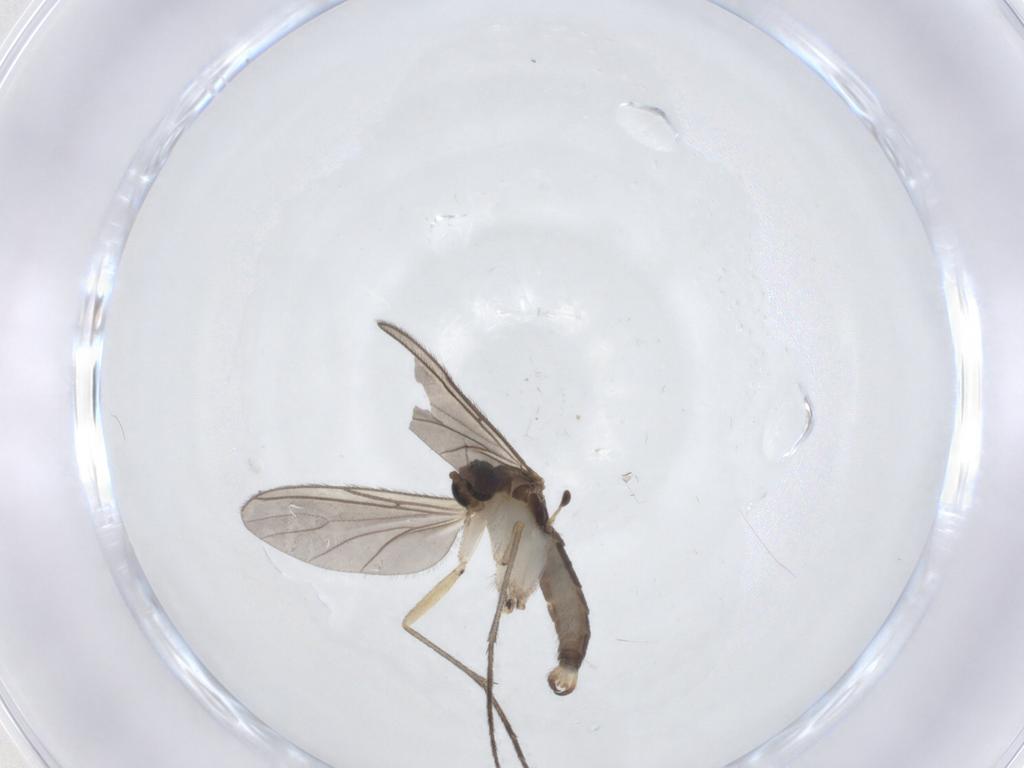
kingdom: Animalia
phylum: Arthropoda
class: Insecta
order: Diptera
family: Sciaridae
